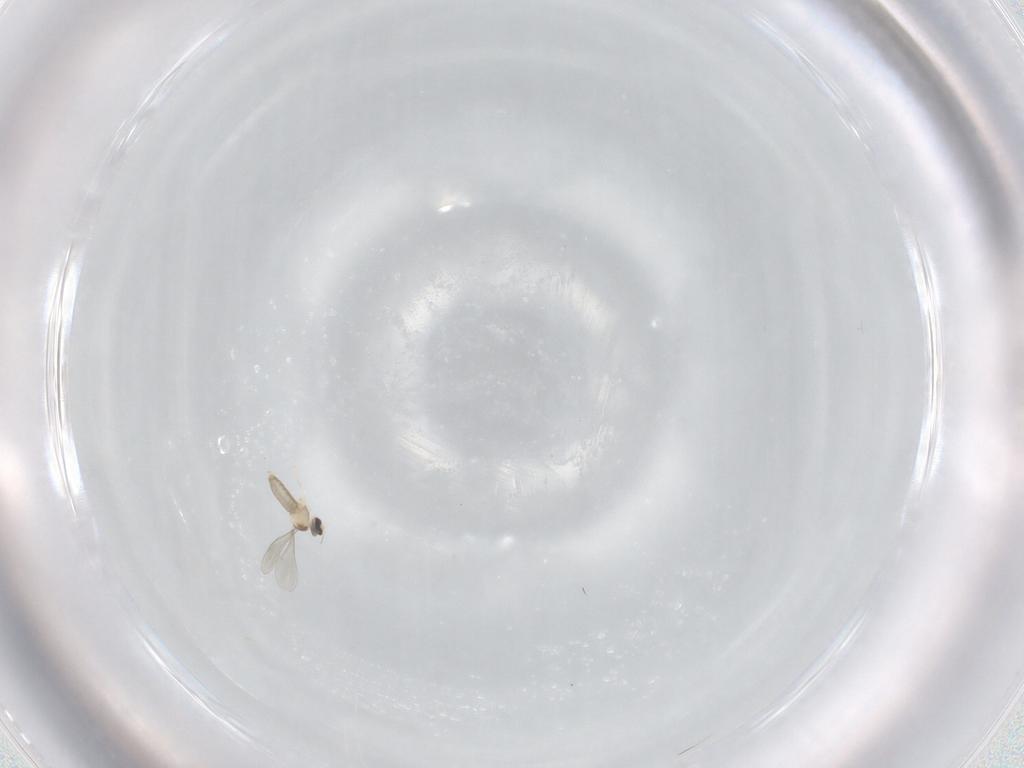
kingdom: Animalia
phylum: Arthropoda
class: Insecta
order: Diptera
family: Cecidomyiidae
